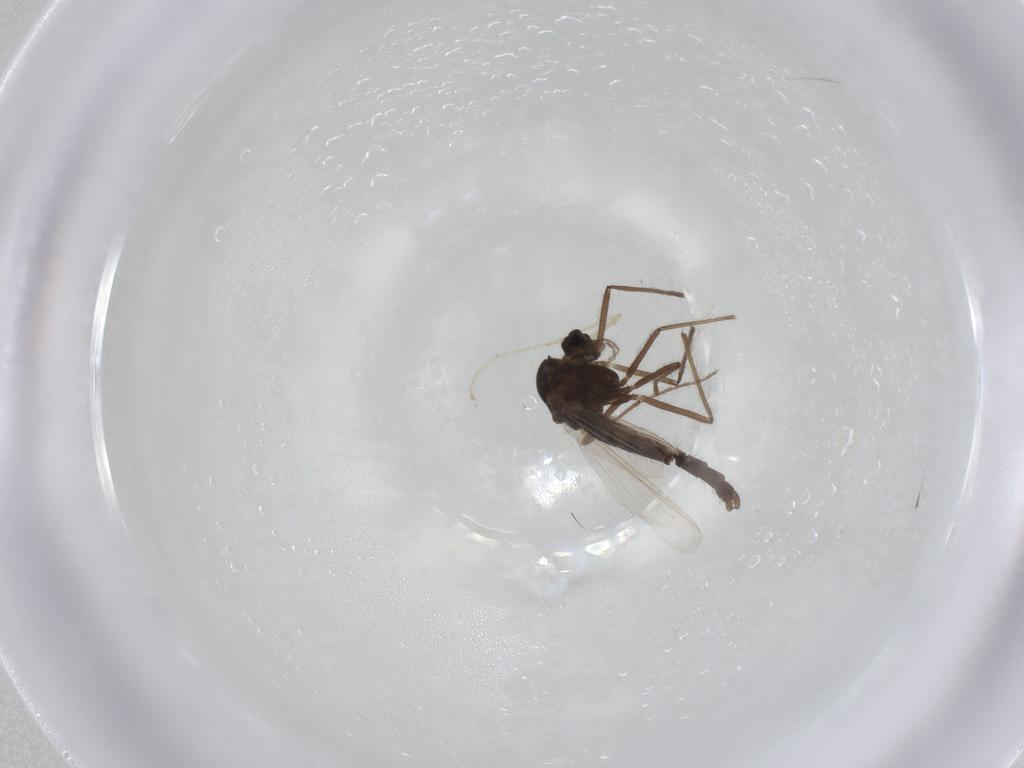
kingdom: Animalia
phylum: Arthropoda
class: Insecta
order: Diptera
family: Chironomidae
